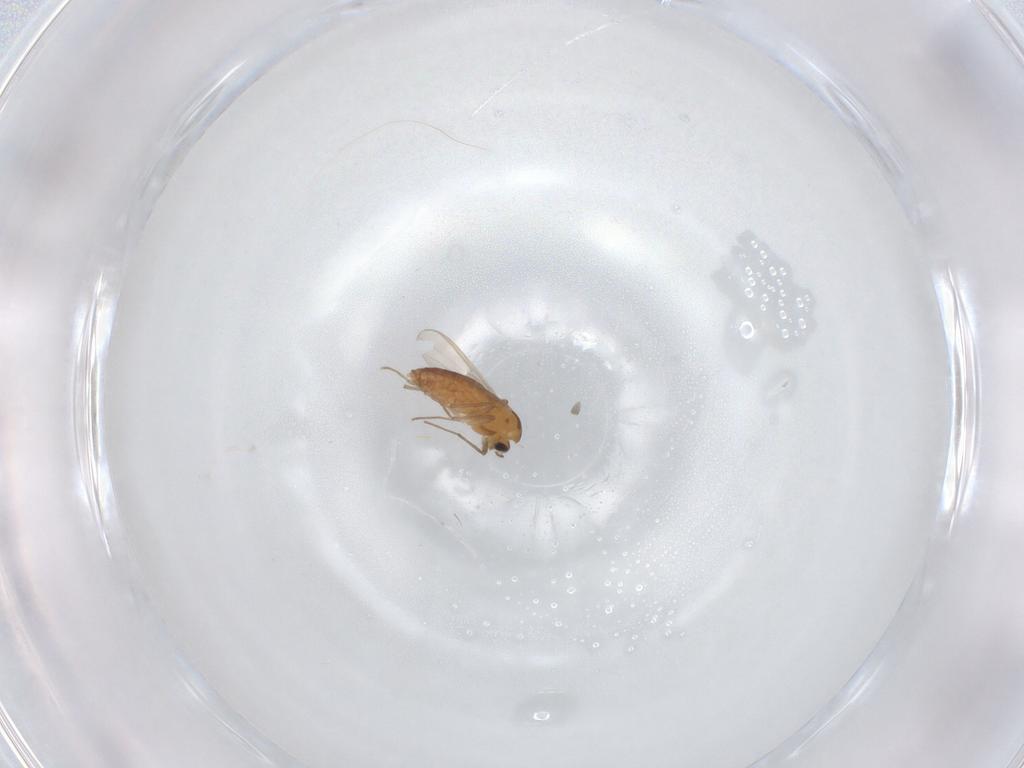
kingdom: Animalia
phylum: Arthropoda
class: Insecta
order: Diptera
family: Chironomidae
